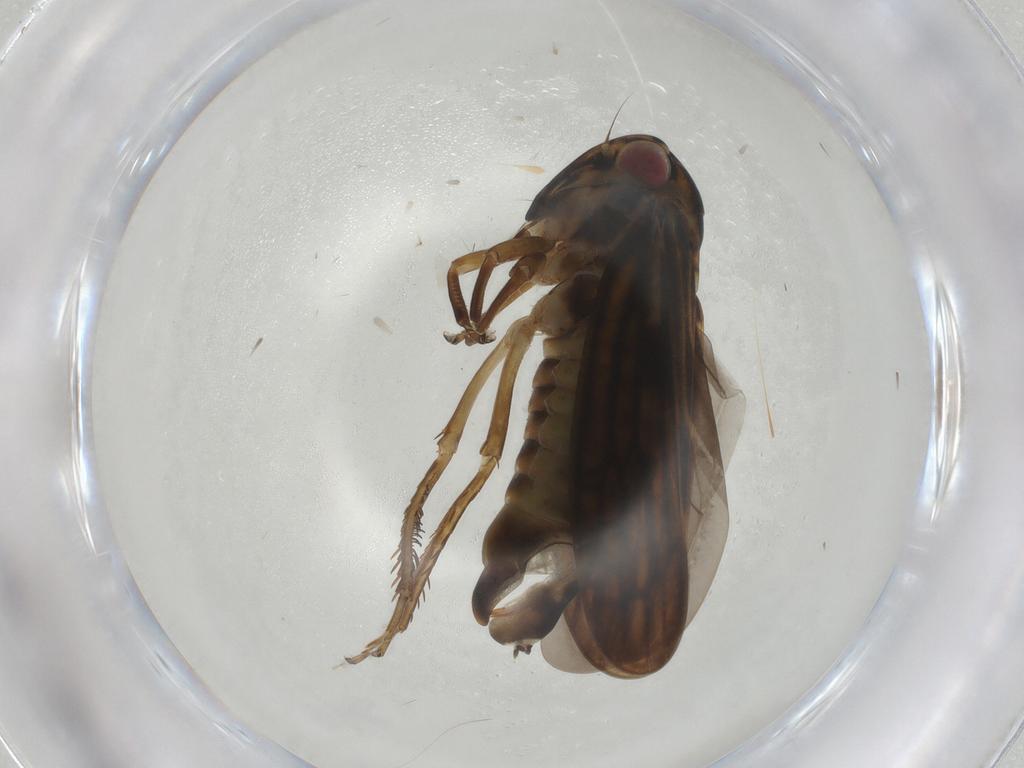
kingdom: Animalia
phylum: Arthropoda
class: Insecta
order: Hemiptera
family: Cicadellidae
